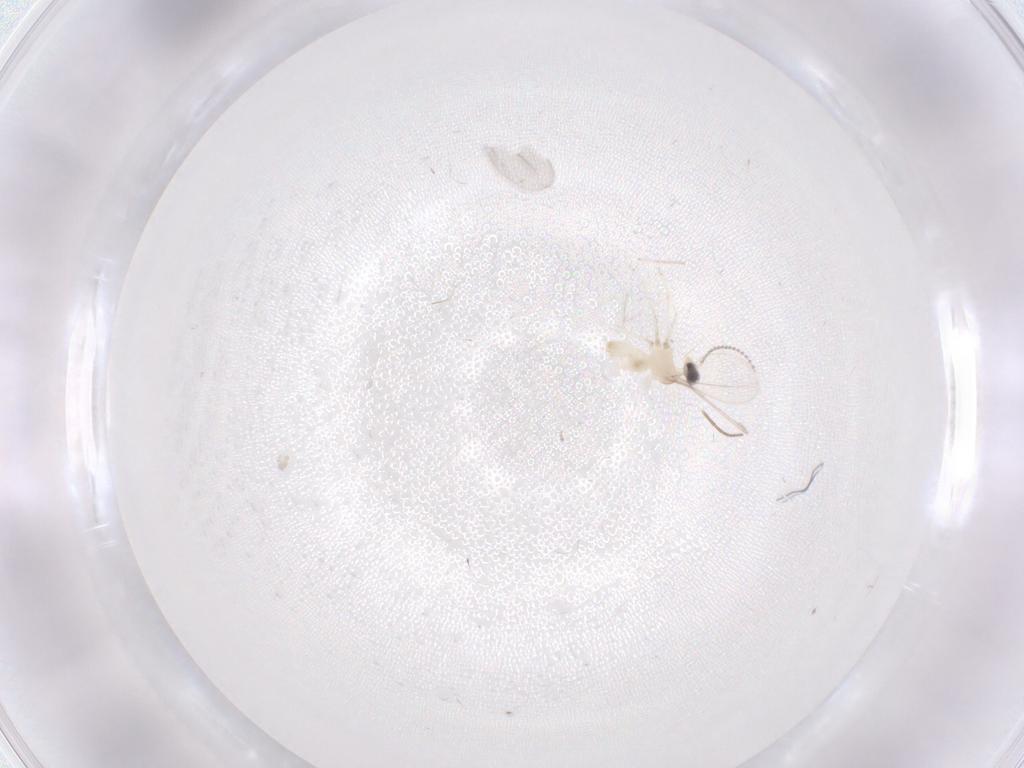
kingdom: Animalia
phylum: Arthropoda
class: Insecta
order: Diptera
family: Cecidomyiidae
